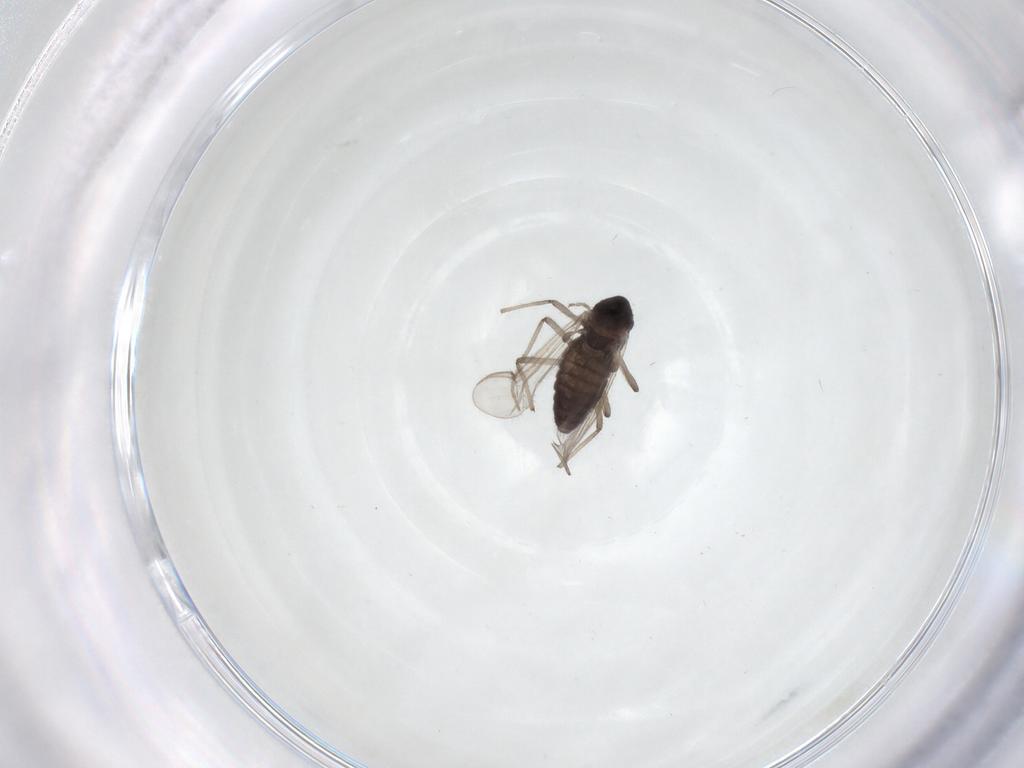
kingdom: Animalia
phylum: Arthropoda
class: Insecta
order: Diptera
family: Chironomidae
